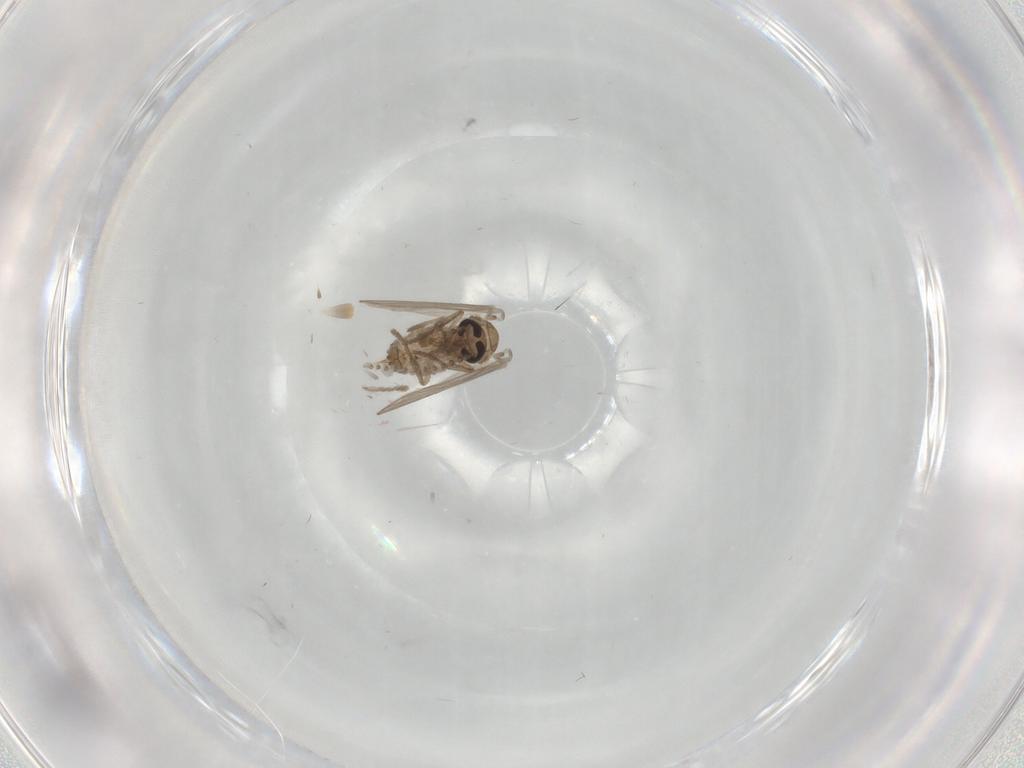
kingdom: Animalia
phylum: Arthropoda
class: Insecta
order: Diptera
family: Psychodidae
